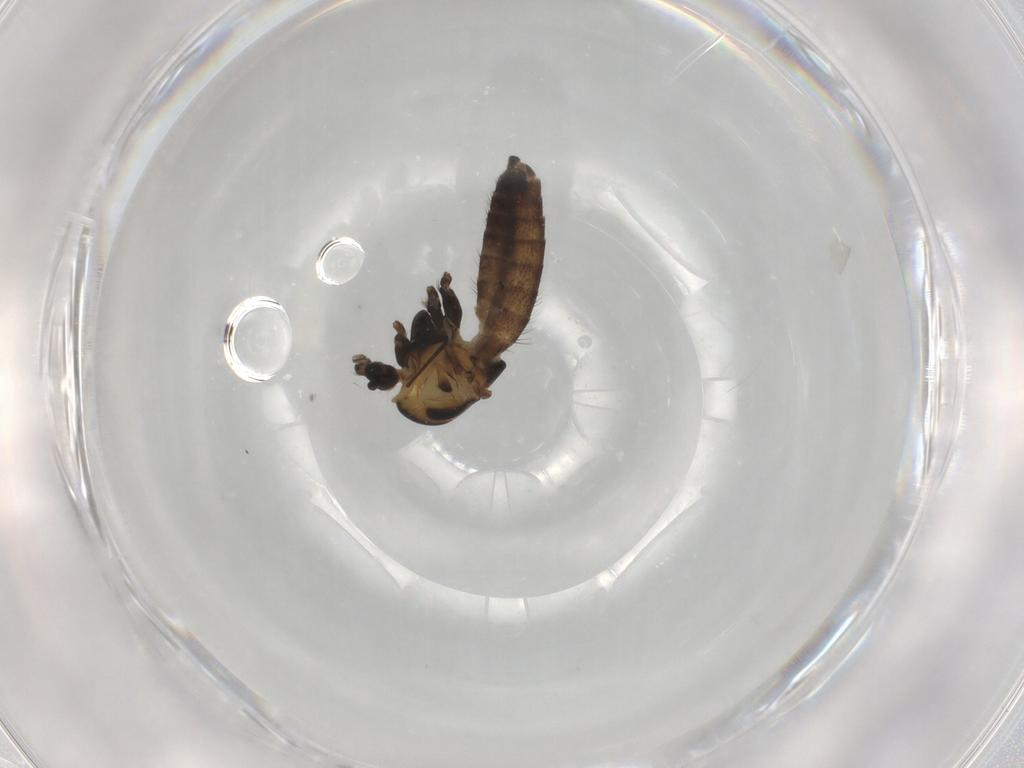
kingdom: Animalia
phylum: Arthropoda
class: Insecta
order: Diptera
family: Chironomidae
